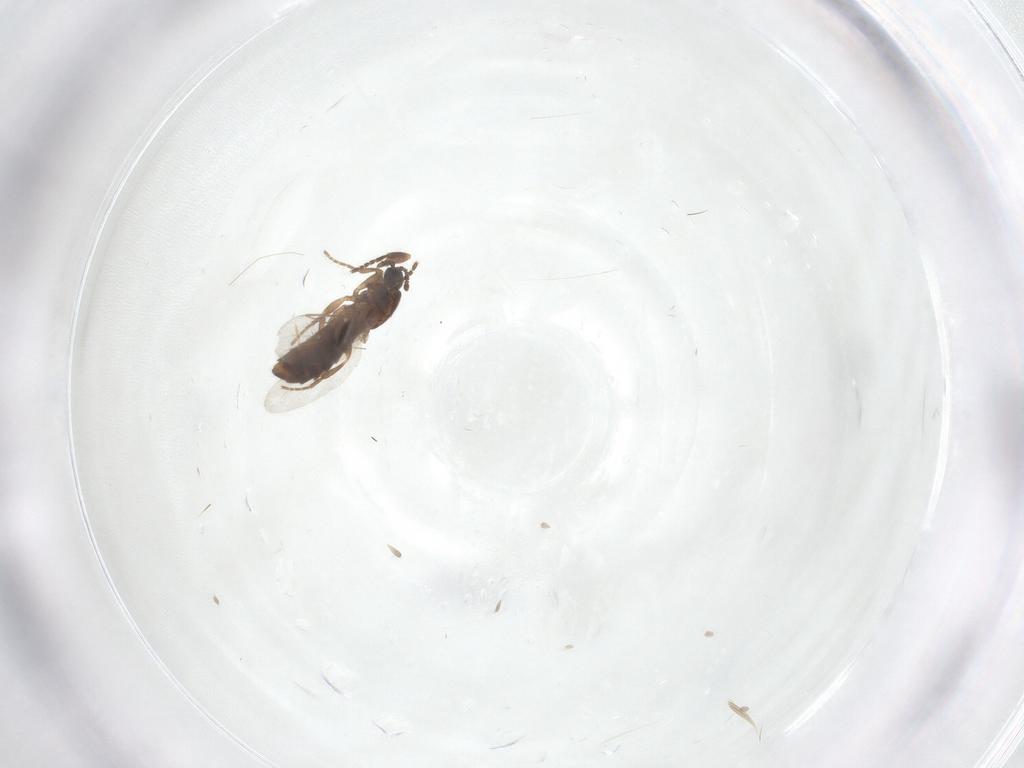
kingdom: Animalia
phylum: Arthropoda
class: Insecta
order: Diptera
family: Scatopsidae
